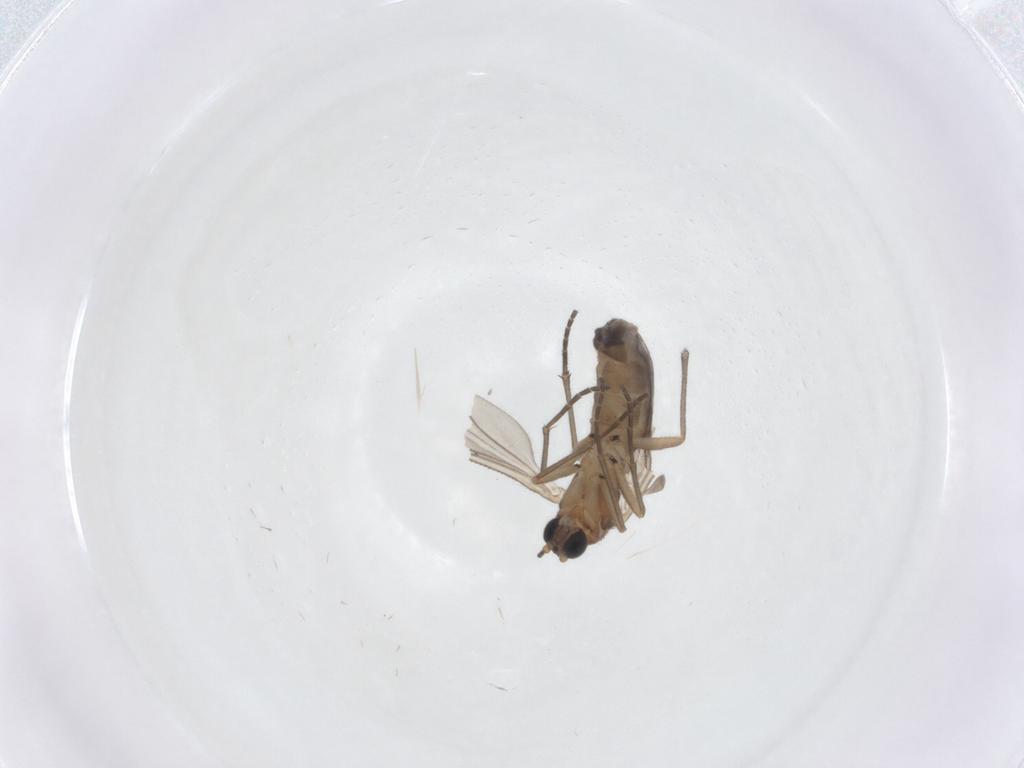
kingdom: Animalia
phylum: Arthropoda
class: Insecta
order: Diptera
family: Sciaridae
